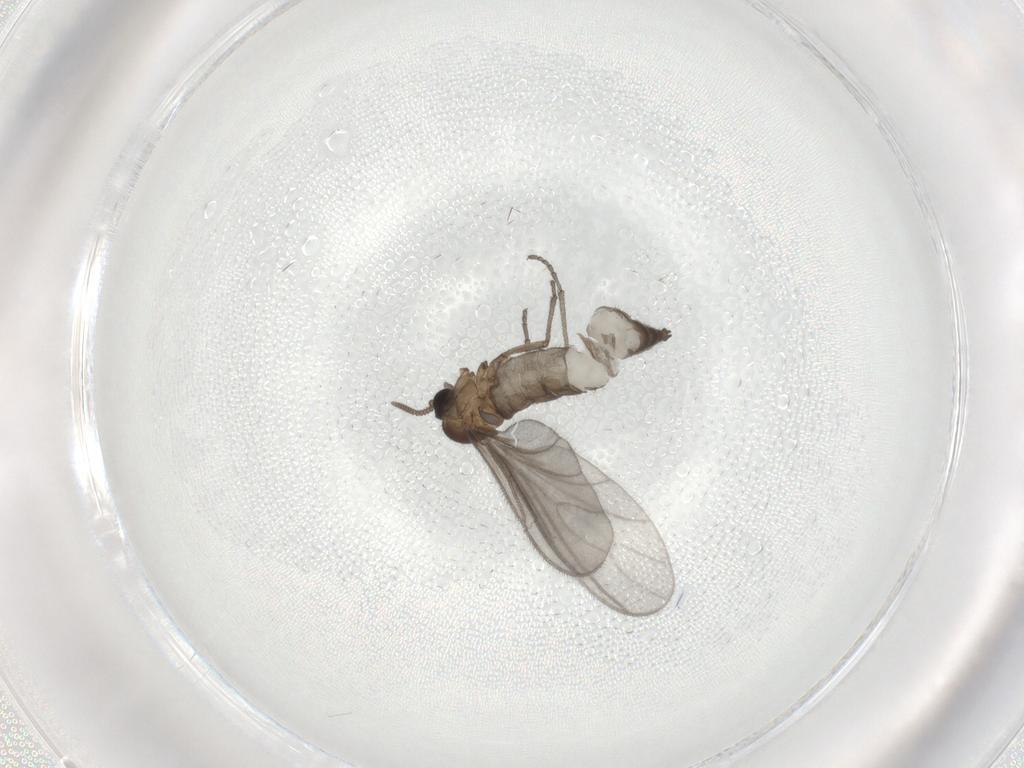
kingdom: Animalia
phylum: Arthropoda
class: Insecta
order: Diptera
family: Sciaridae
